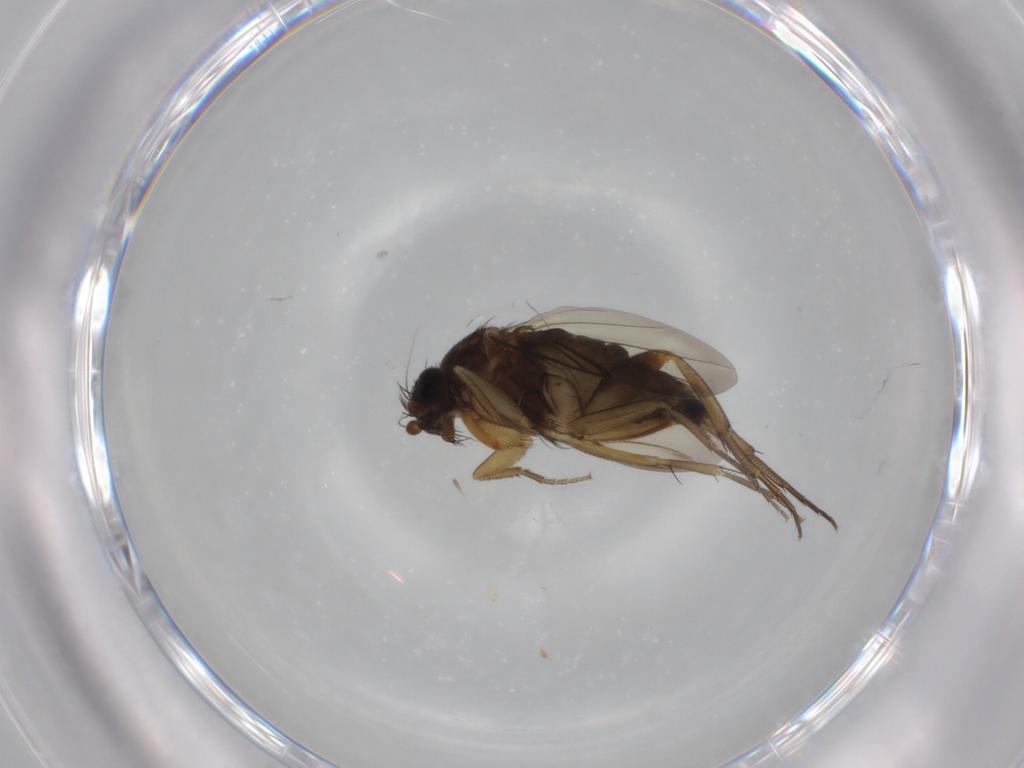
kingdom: Animalia
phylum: Arthropoda
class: Insecta
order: Diptera
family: Phoridae
